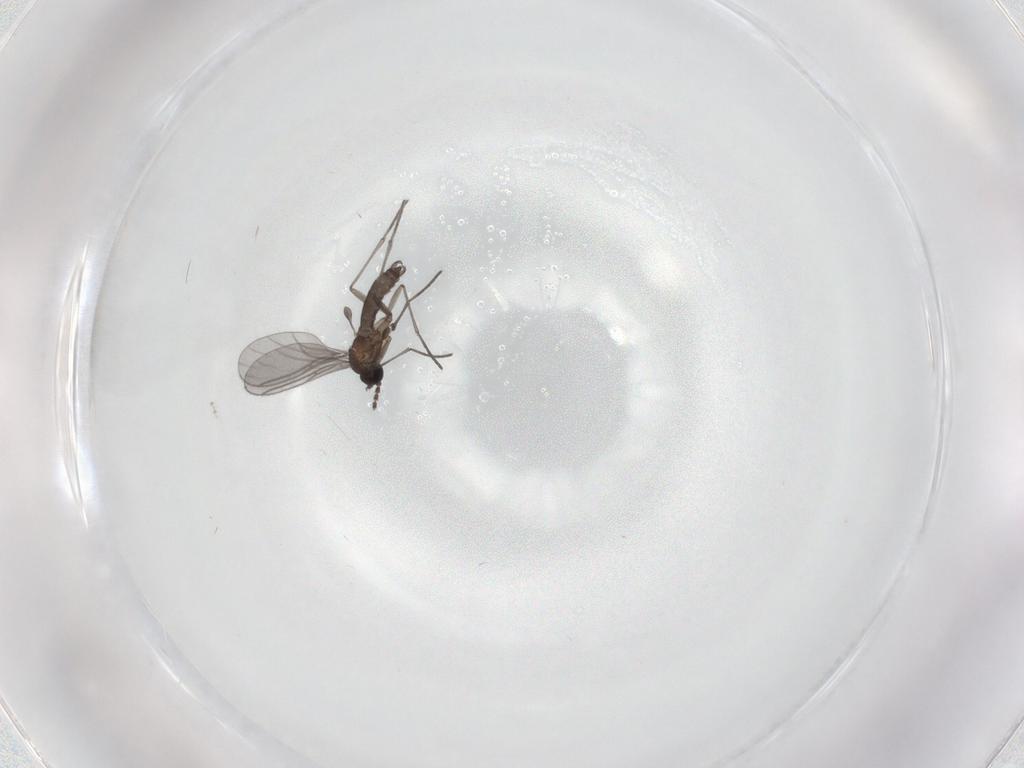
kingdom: Animalia
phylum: Arthropoda
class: Insecta
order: Diptera
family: Cecidomyiidae
